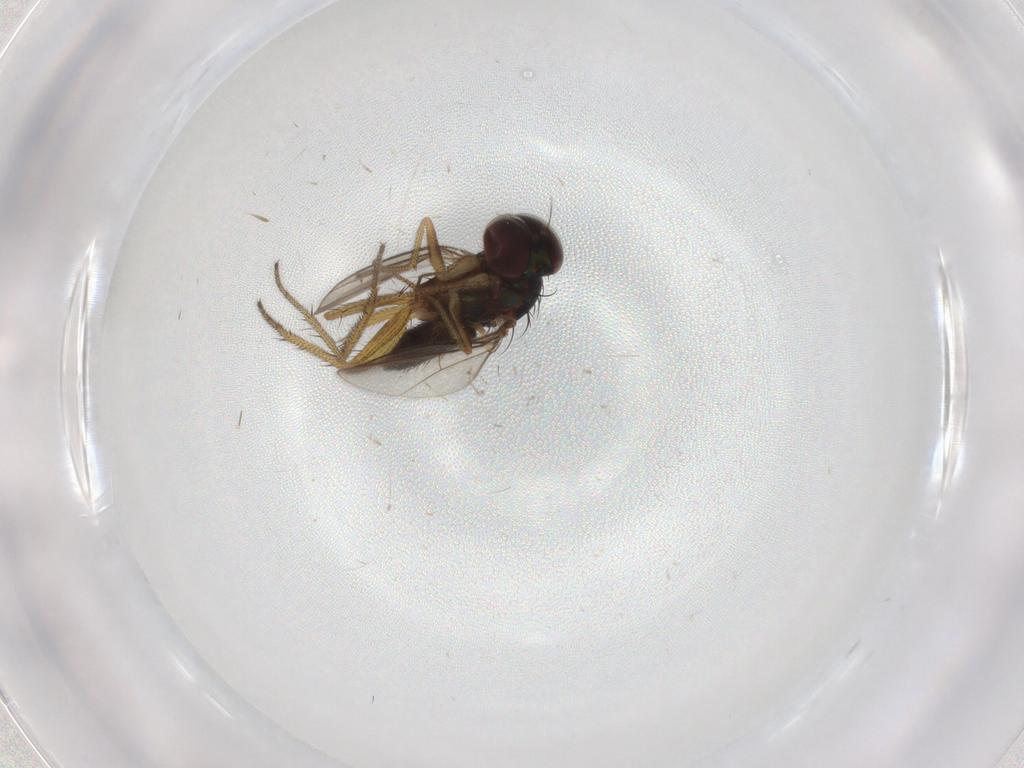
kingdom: Animalia
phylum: Arthropoda
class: Insecta
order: Diptera
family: Dolichopodidae
